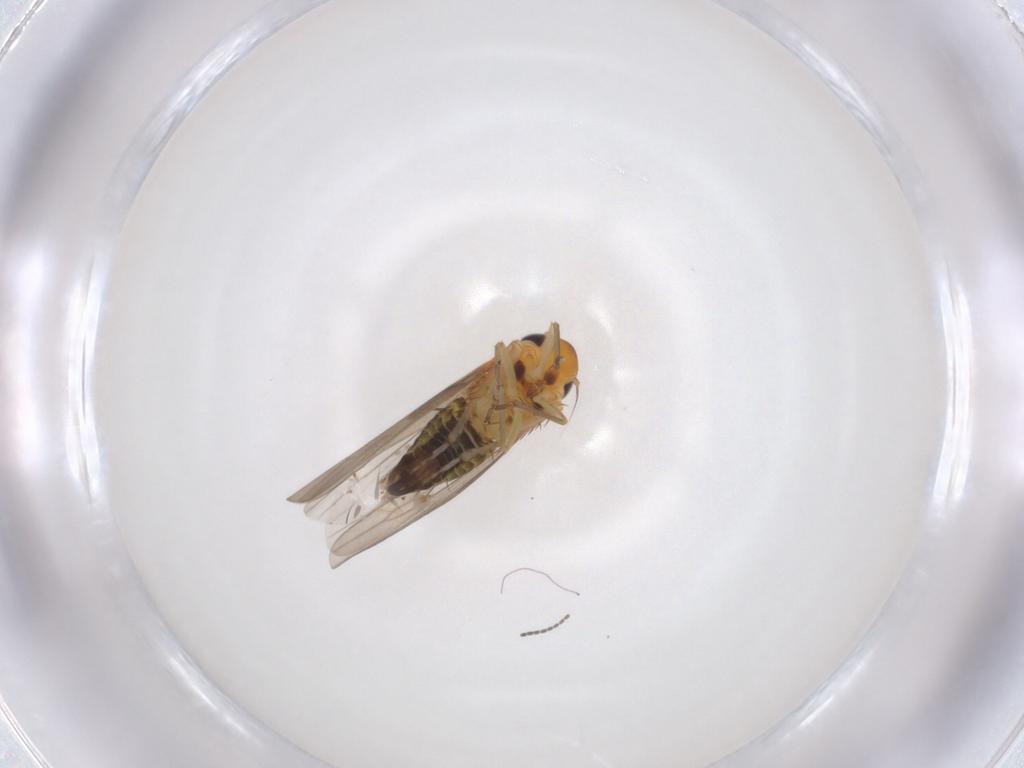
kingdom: Animalia
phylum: Arthropoda
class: Insecta
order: Hemiptera
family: Cicadellidae
